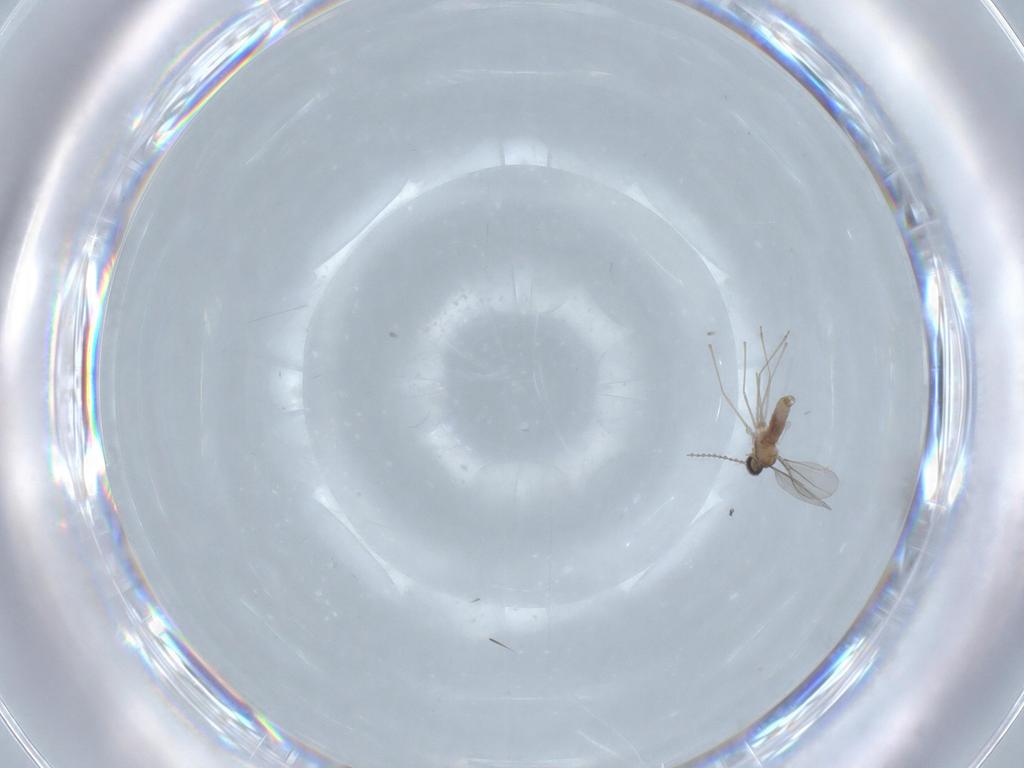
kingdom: Animalia
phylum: Arthropoda
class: Insecta
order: Diptera
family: Cecidomyiidae
